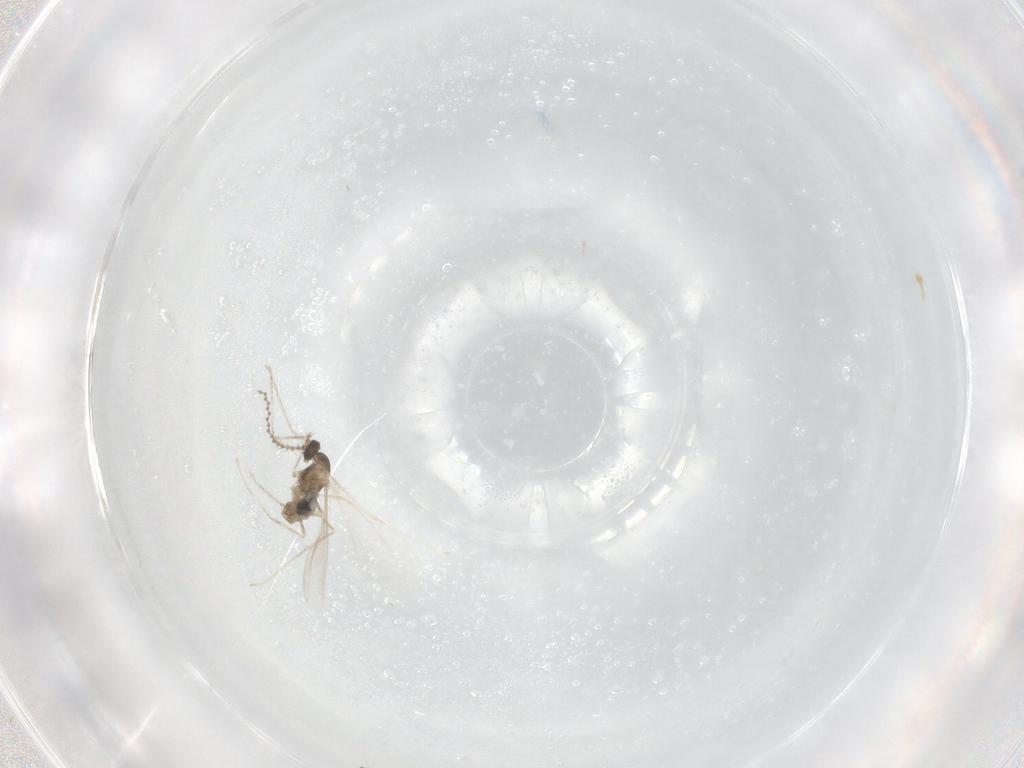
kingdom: Animalia
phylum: Arthropoda
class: Insecta
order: Diptera
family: Cecidomyiidae
